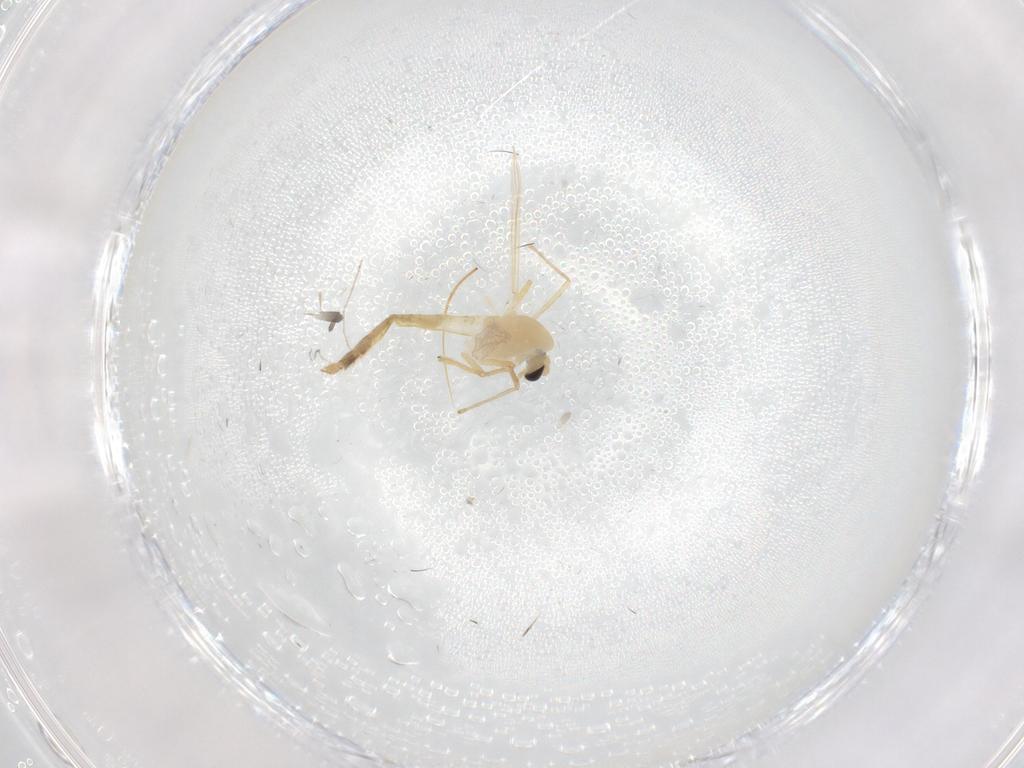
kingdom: Animalia
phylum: Arthropoda
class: Insecta
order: Diptera
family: Chironomidae
